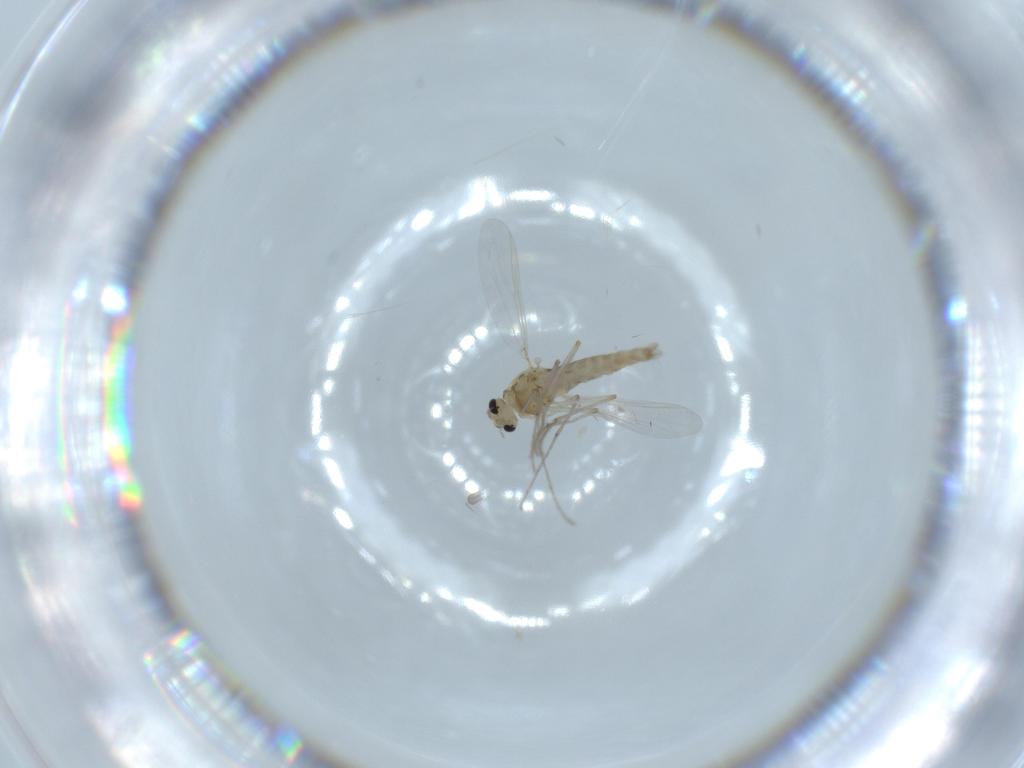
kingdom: Animalia
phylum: Arthropoda
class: Insecta
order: Diptera
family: Chironomidae
